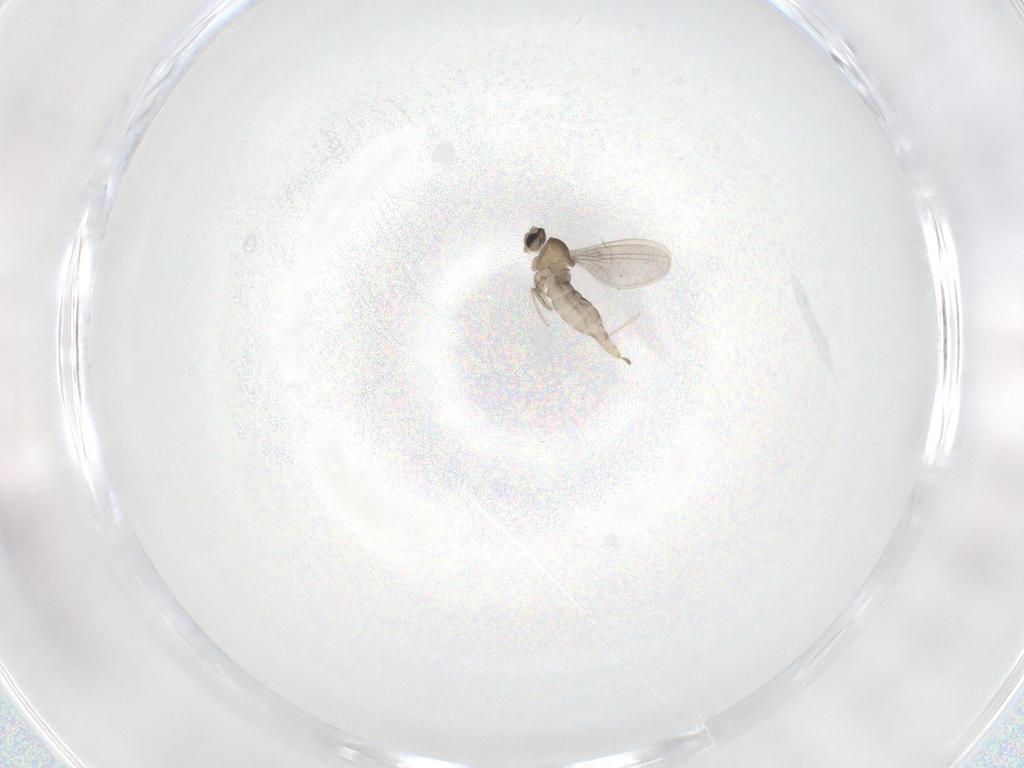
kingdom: Animalia
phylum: Arthropoda
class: Insecta
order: Diptera
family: Cecidomyiidae
